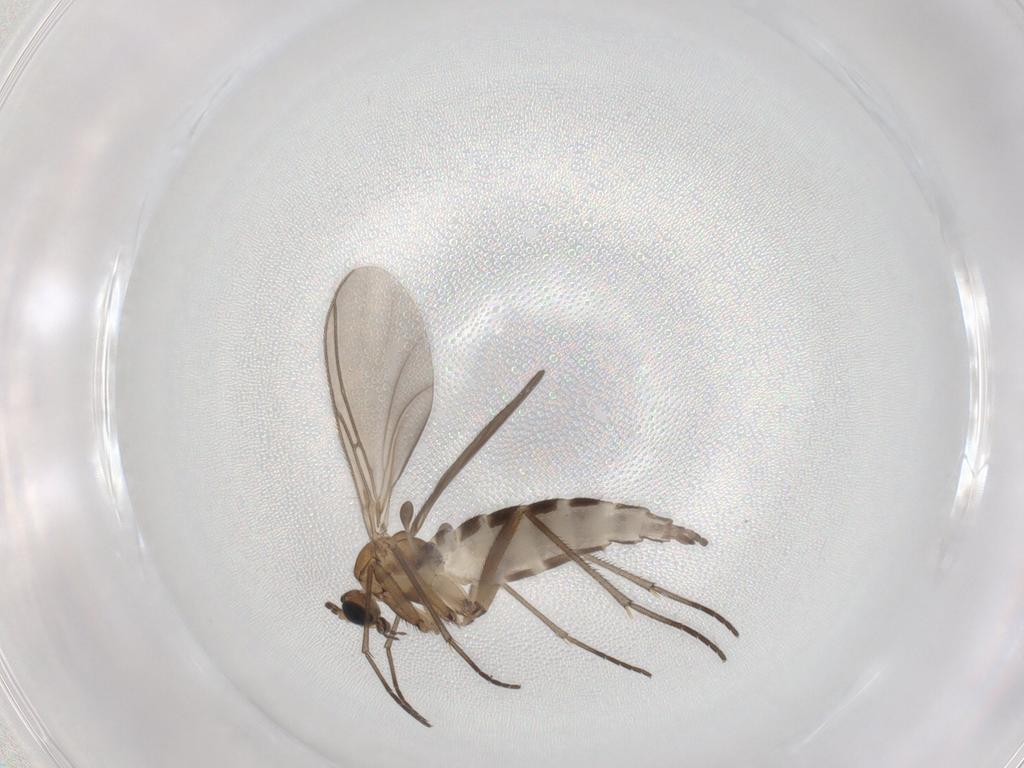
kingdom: Animalia
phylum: Arthropoda
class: Insecta
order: Diptera
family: Sciaridae
